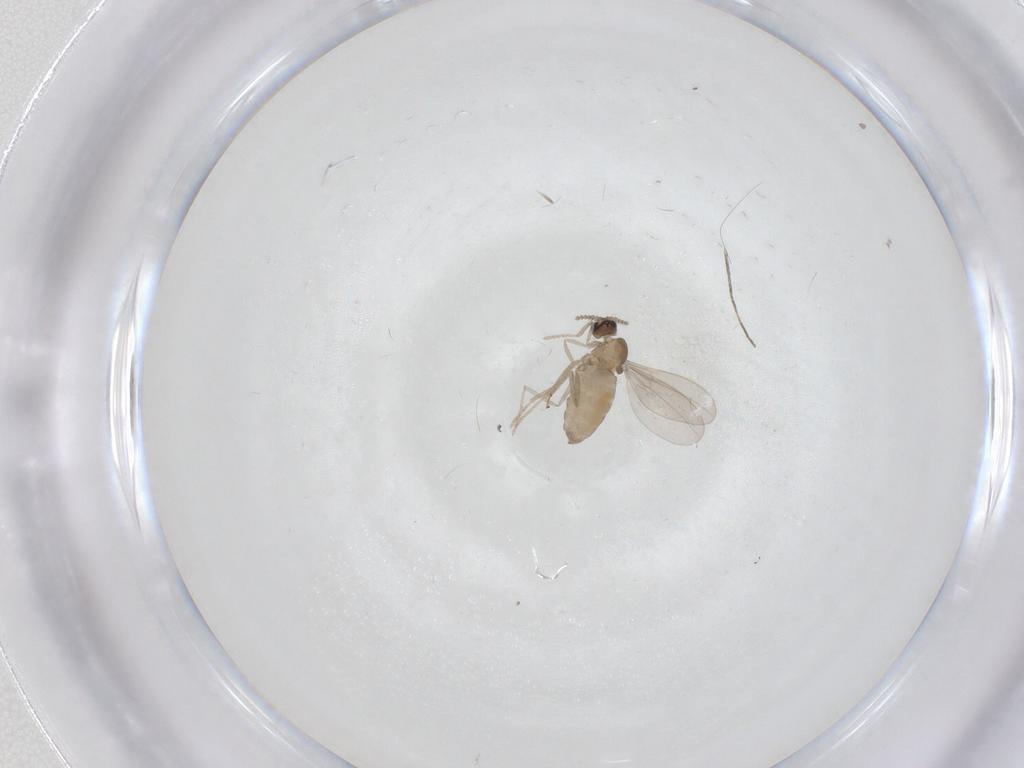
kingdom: Animalia
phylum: Arthropoda
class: Insecta
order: Diptera
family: Cecidomyiidae
